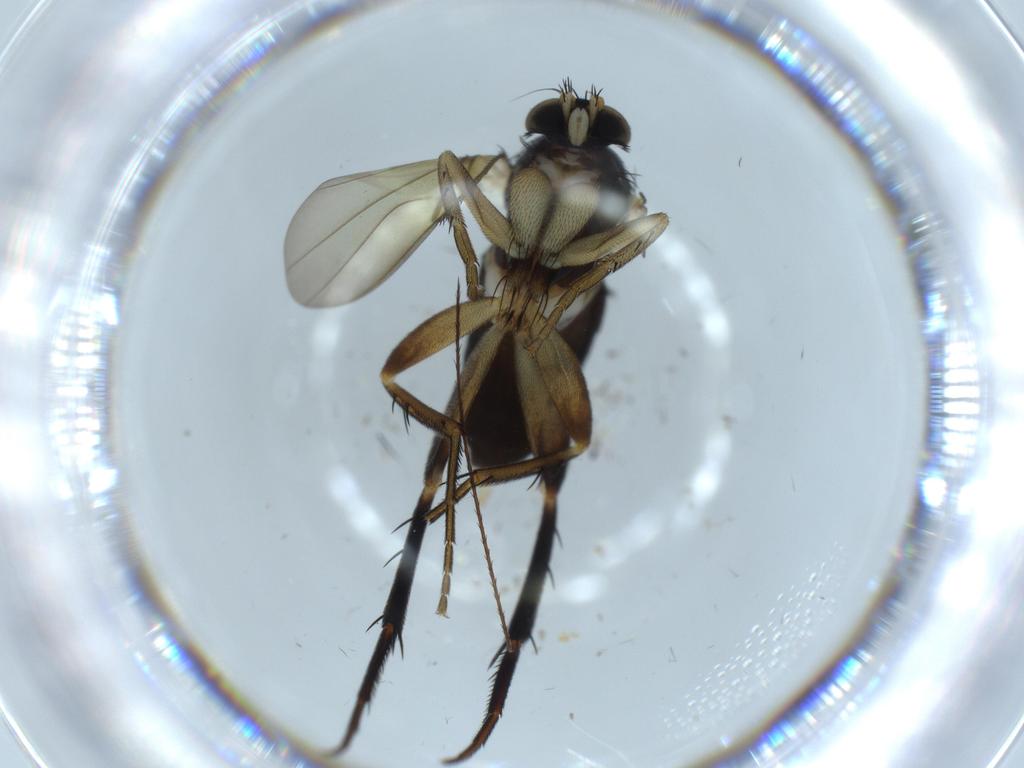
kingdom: Animalia
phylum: Arthropoda
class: Insecta
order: Diptera
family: Phoridae
